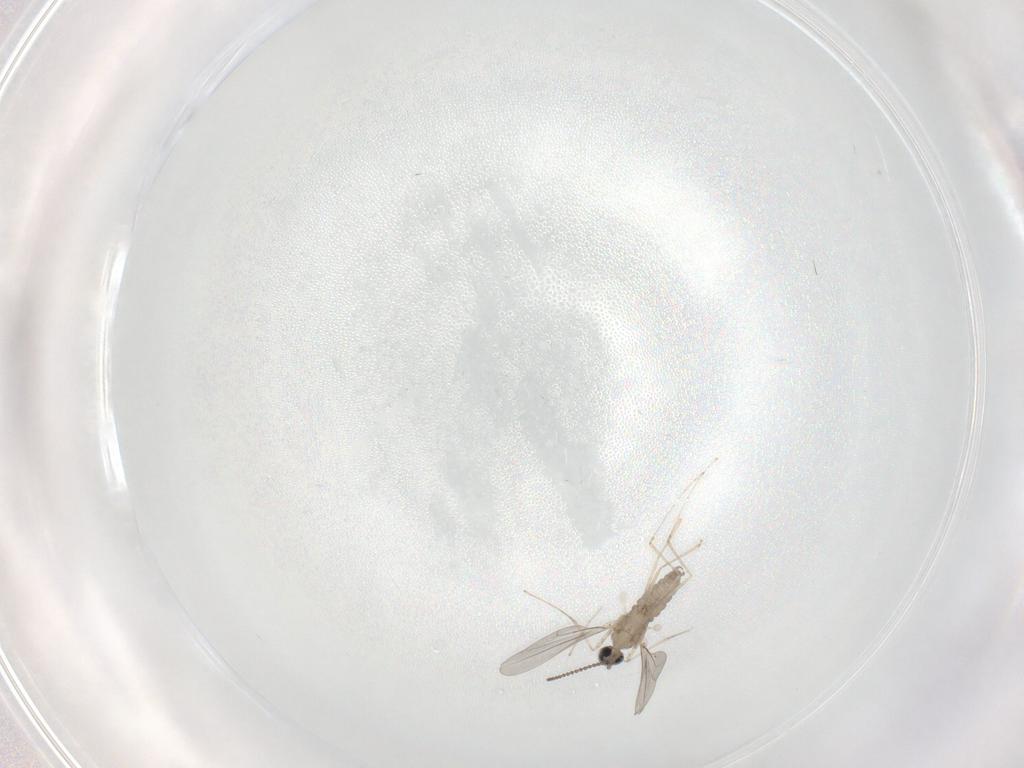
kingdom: Animalia
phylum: Arthropoda
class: Insecta
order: Diptera
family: Cecidomyiidae
